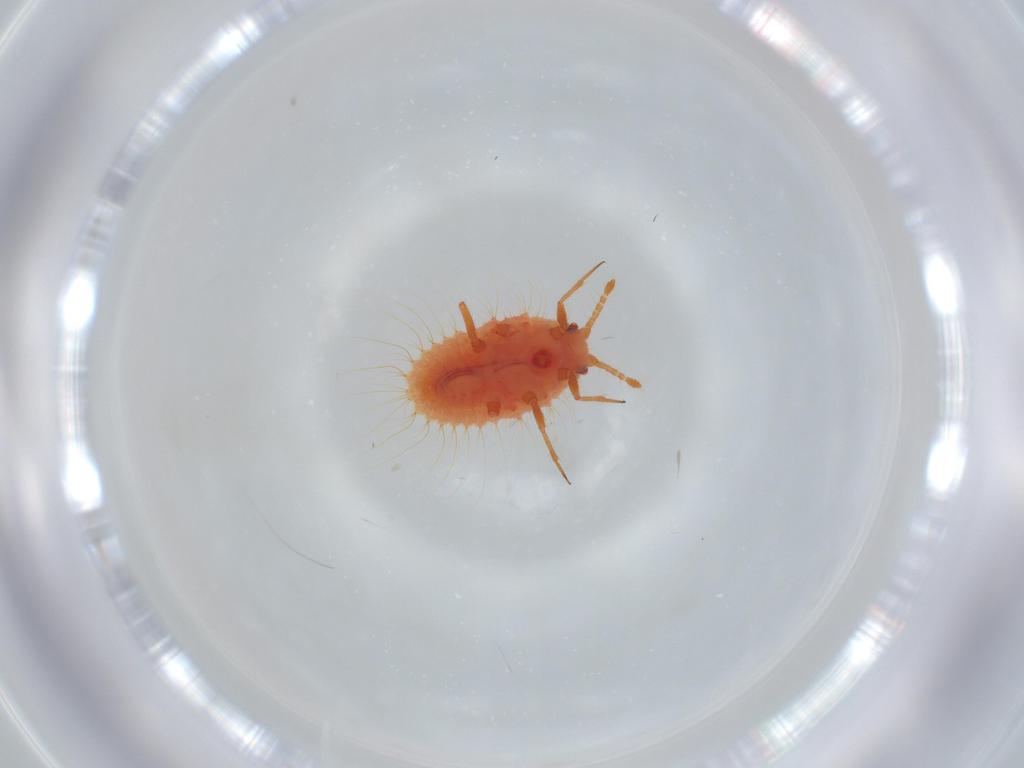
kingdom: Animalia
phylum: Arthropoda
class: Insecta
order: Hemiptera
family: Coccoidea_incertae_sedis
